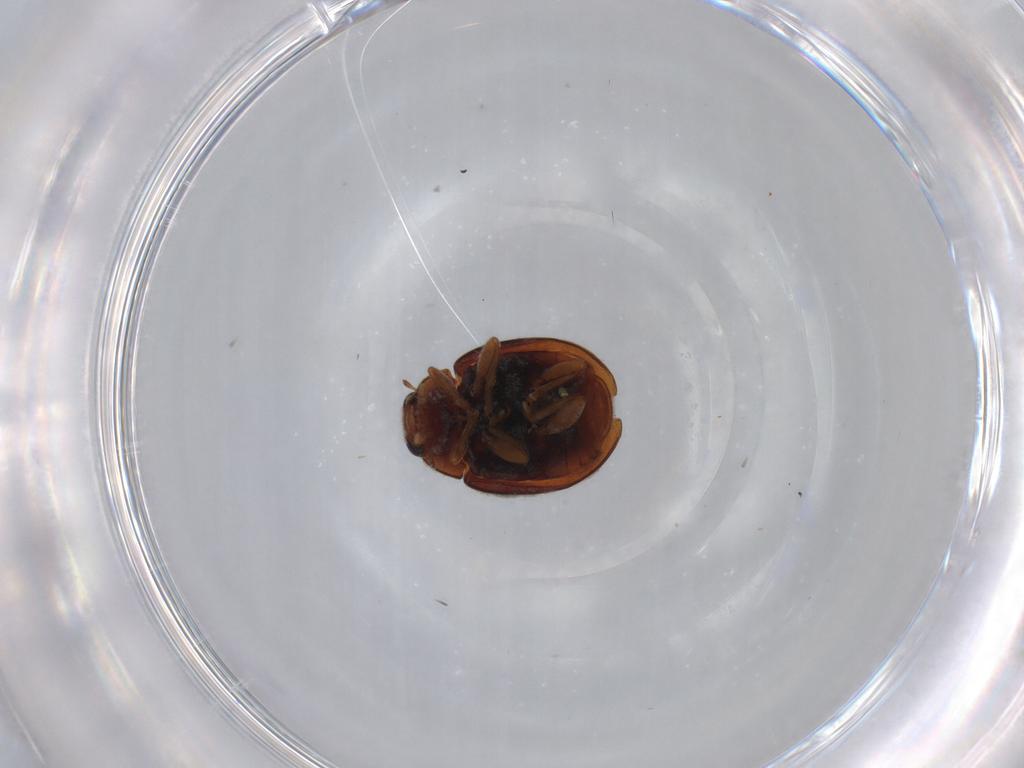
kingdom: Animalia
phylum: Arthropoda
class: Insecta
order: Coleoptera
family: Coccinellidae
